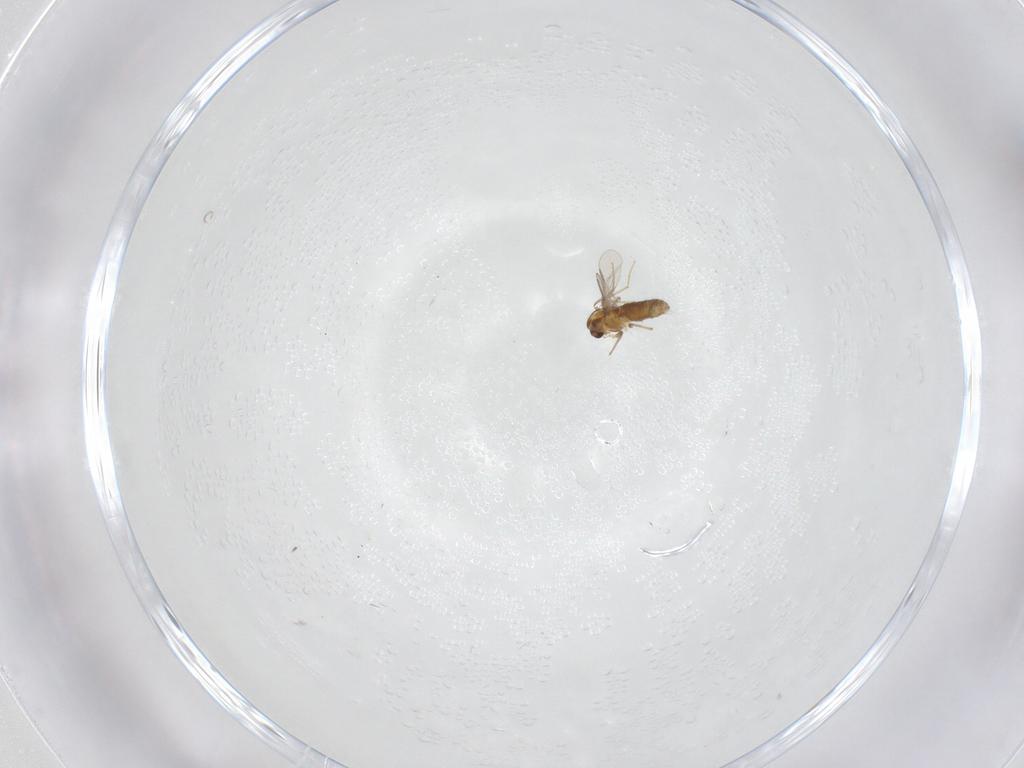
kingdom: Animalia
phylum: Arthropoda
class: Insecta
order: Diptera
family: Chironomidae
